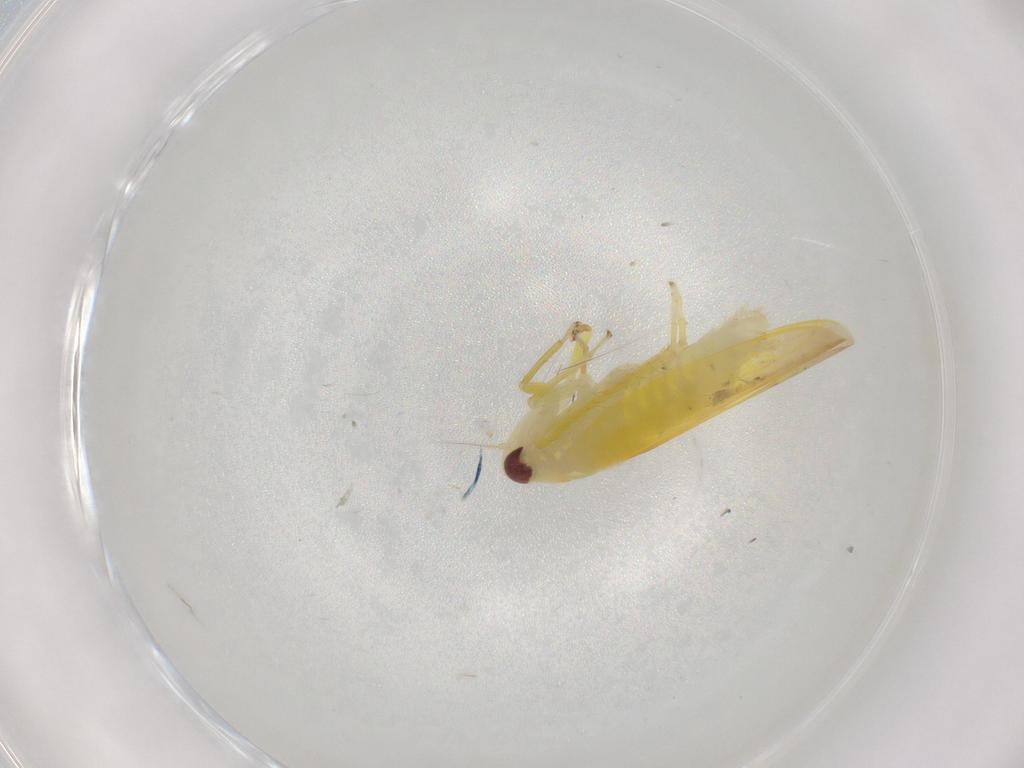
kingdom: Animalia
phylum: Arthropoda
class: Insecta
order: Hemiptera
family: Cicadellidae
